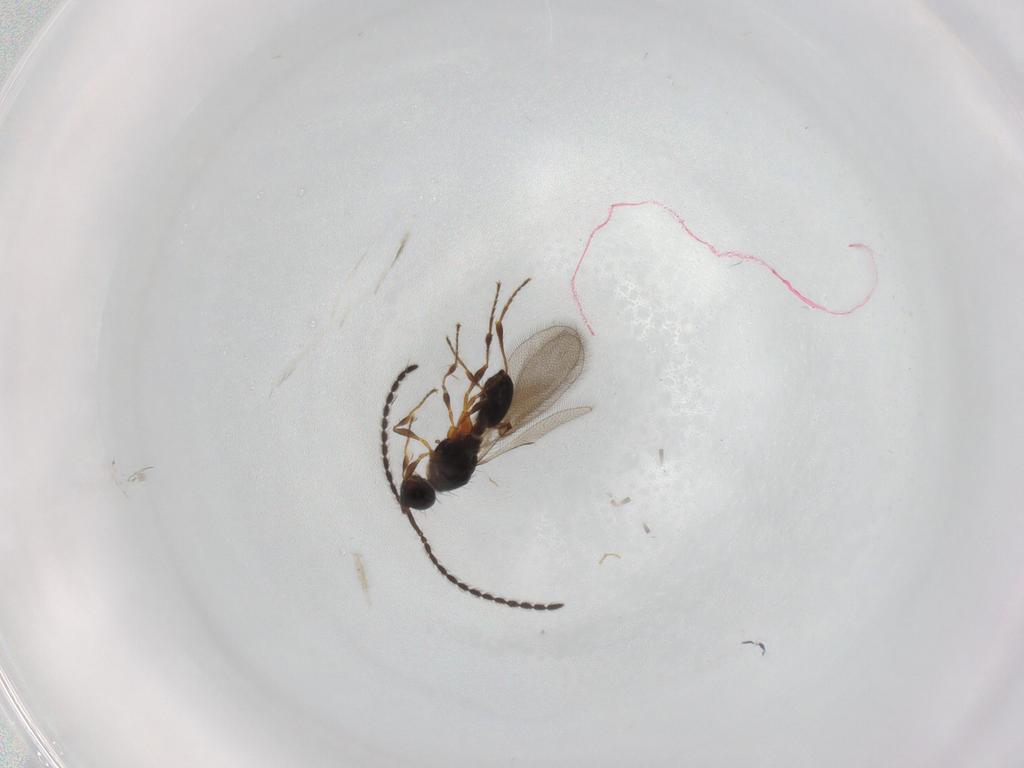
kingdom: Animalia
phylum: Arthropoda
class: Insecta
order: Hymenoptera
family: Diapriidae
